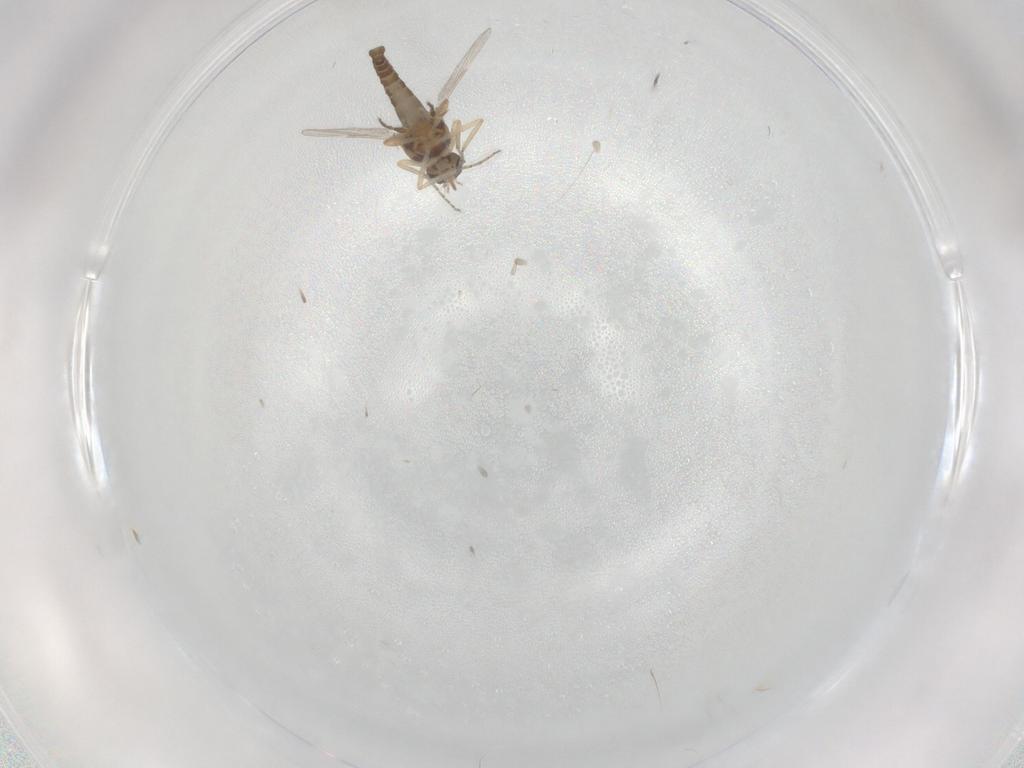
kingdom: Animalia
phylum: Arthropoda
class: Insecta
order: Diptera
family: Ceratopogonidae
